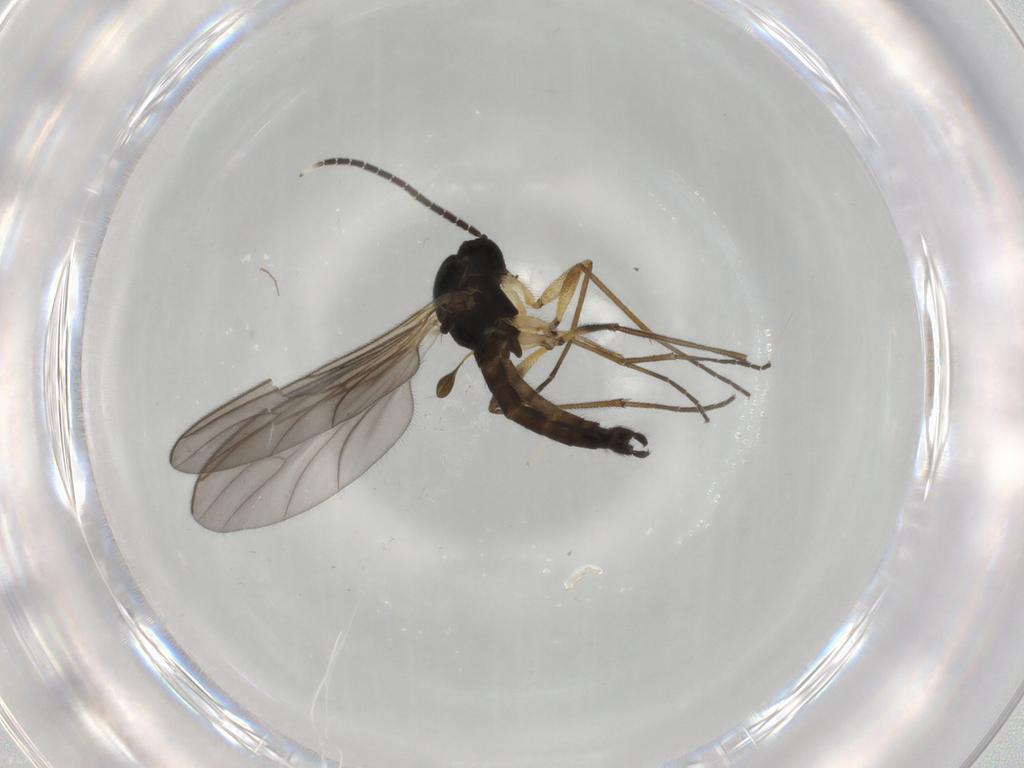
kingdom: Animalia
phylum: Arthropoda
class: Insecta
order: Diptera
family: Sciaridae
